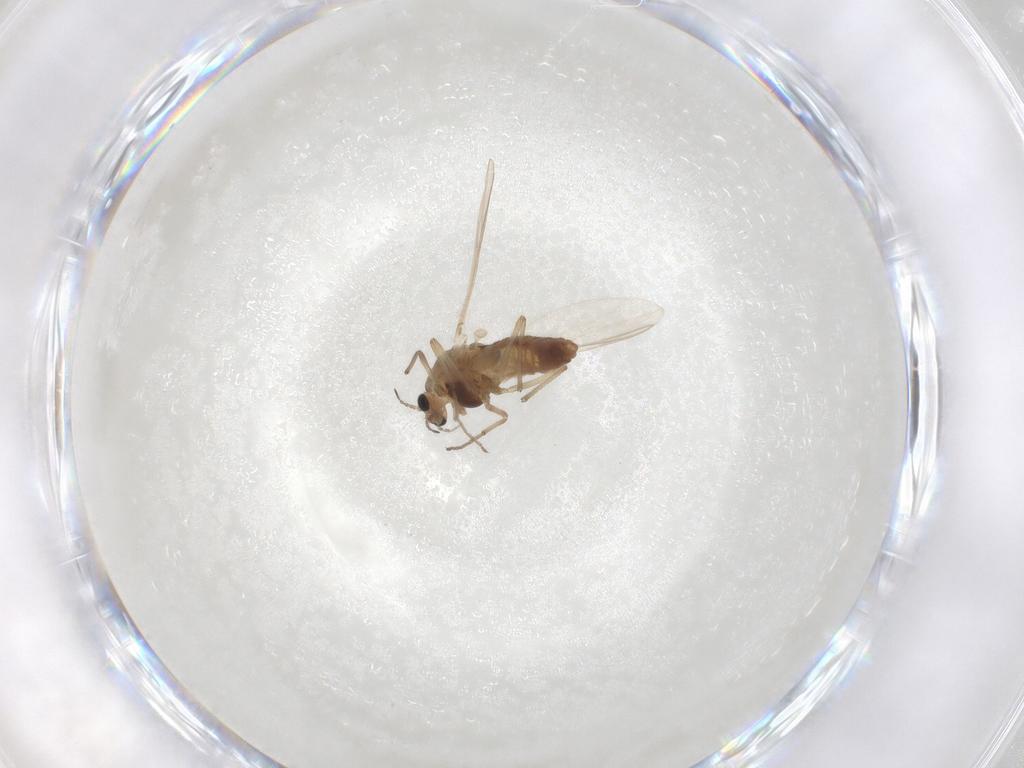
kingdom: Animalia
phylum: Arthropoda
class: Insecta
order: Diptera
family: Chironomidae
